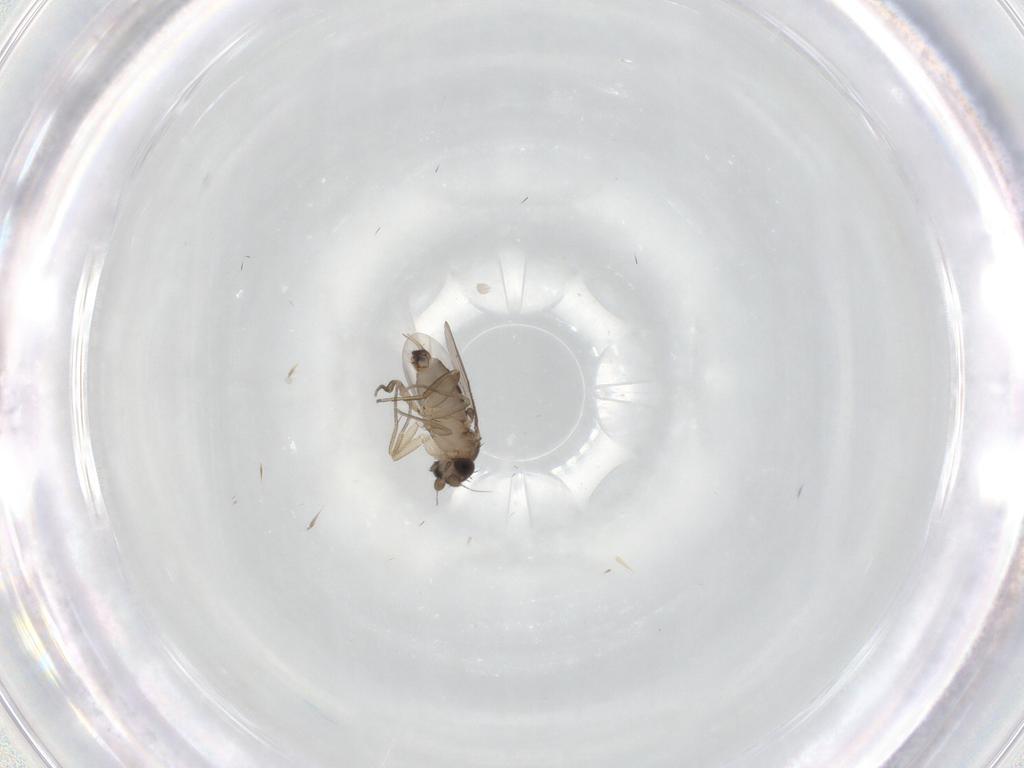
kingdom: Animalia
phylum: Arthropoda
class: Insecta
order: Diptera
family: Phoridae
